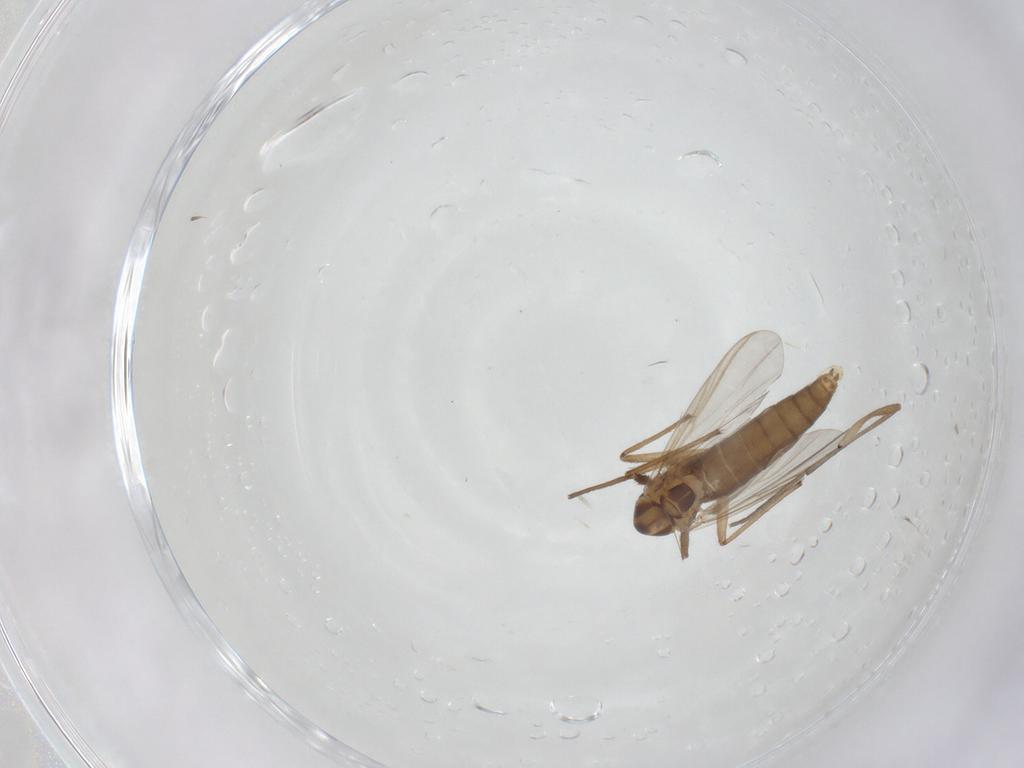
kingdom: Animalia
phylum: Arthropoda
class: Insecta
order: Diptera
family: Chironomidae
